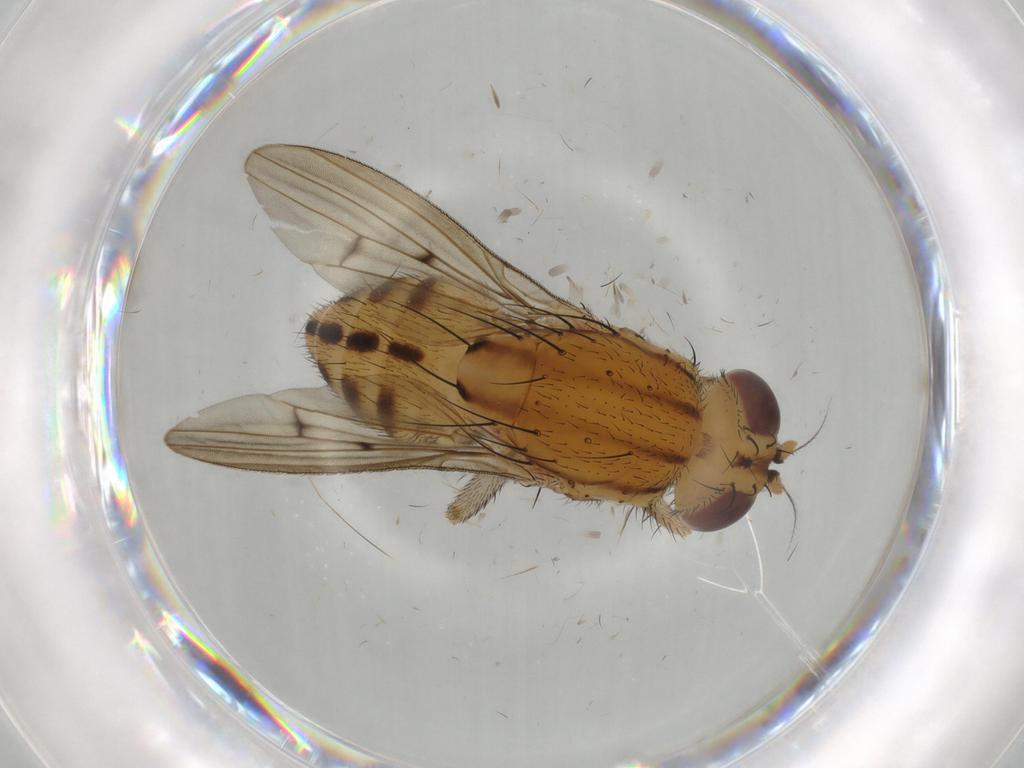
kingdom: Animalia
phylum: Arthropoda
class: Insecta
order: Diptera
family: Lauxaniidae
